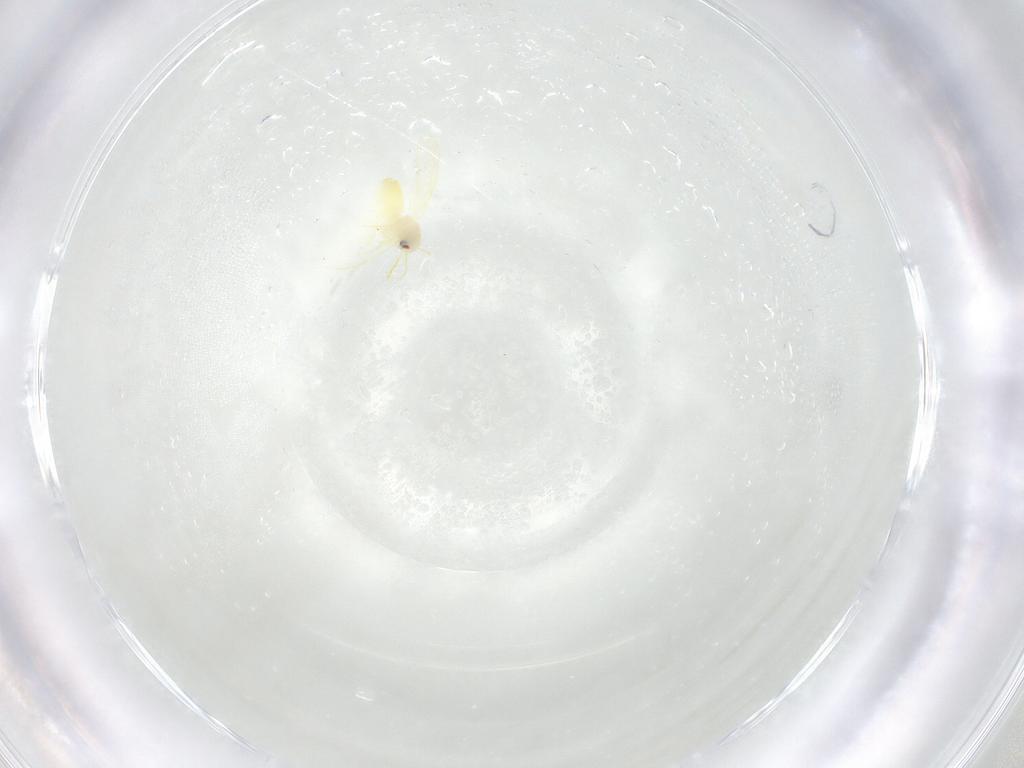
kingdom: Animalia
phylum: Arthropoda
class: Insecta
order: Hemiptera
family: Aleyrodidae
